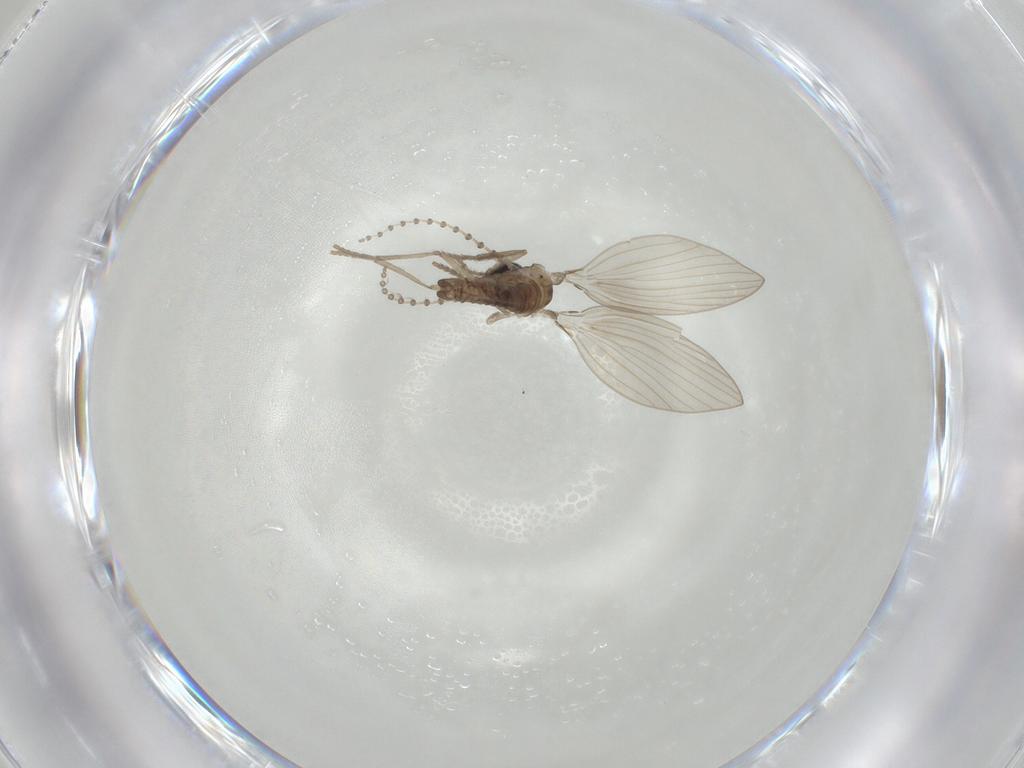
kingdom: Animalia
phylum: Arthropoda
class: Insecta
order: Diptera
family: Psychodidae
